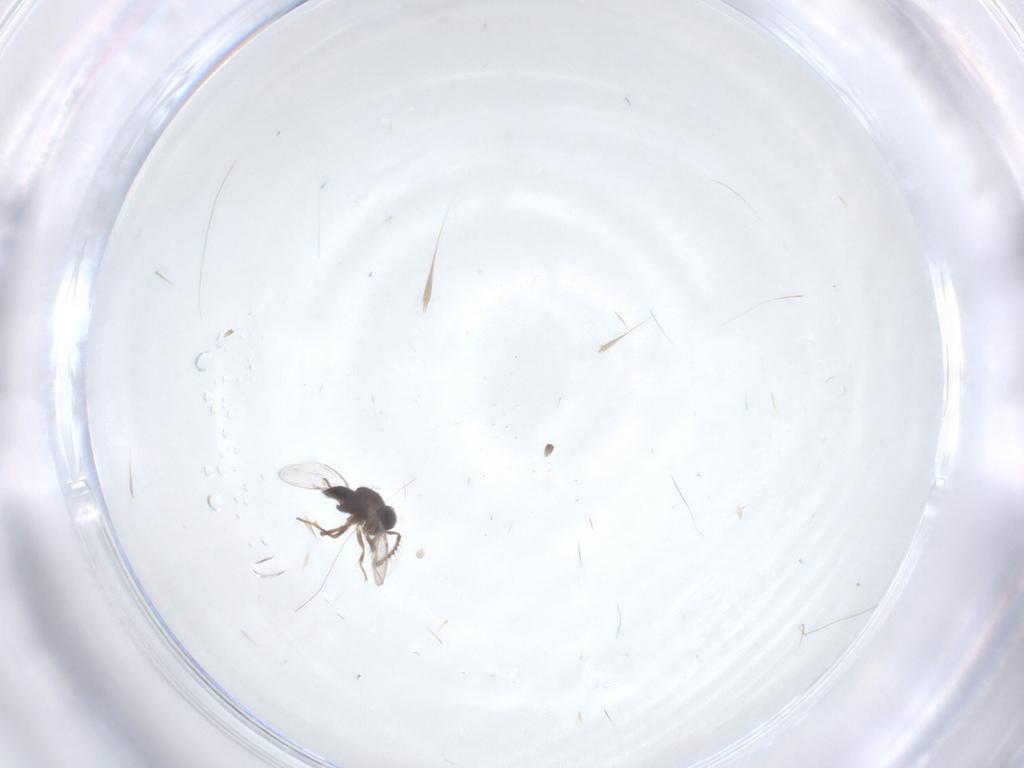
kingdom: Animalia
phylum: Arthropoda
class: Insecta
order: Hymenoptera
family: Encyrtidae
